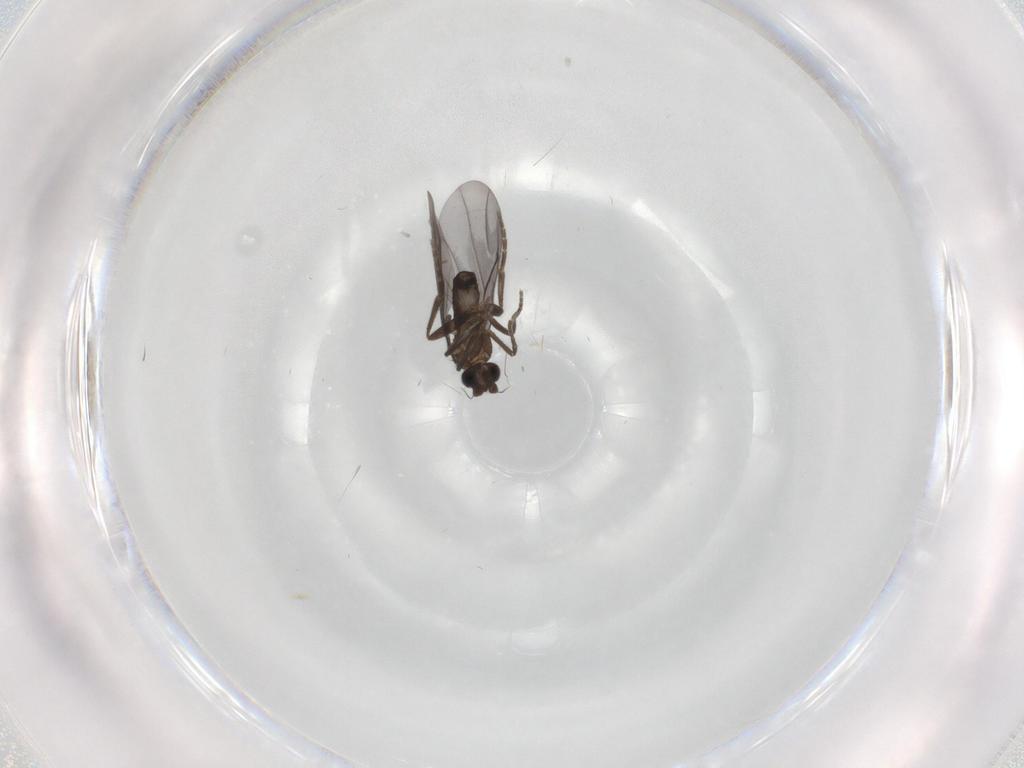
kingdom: Animalia
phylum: Arthropoda
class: Insecta
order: Diptera
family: Phoridae
